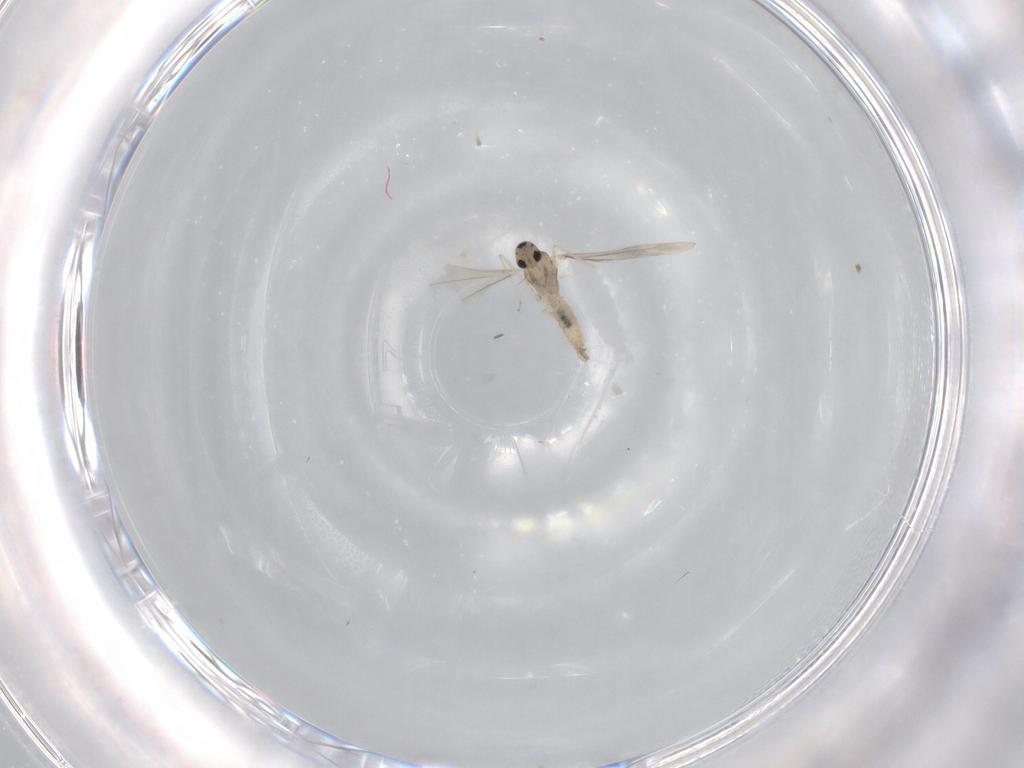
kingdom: Animalia
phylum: Arthropoda
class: Insecta
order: Diptera
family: Cecidomyiidae
